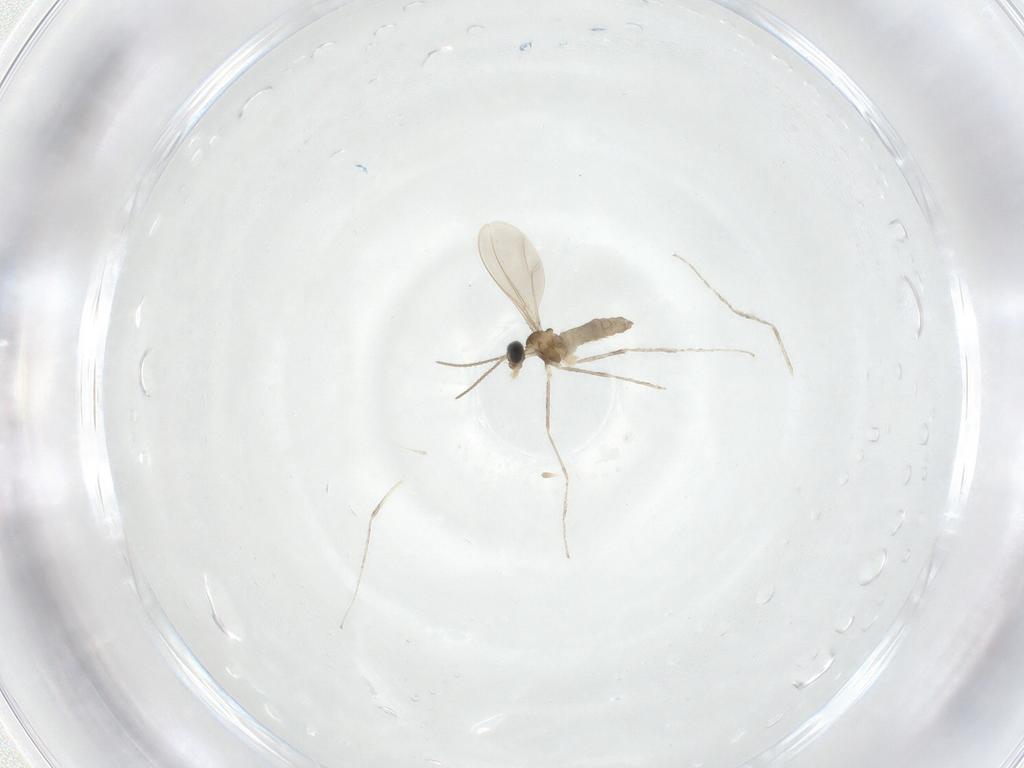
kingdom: Animalia
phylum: Arthropoda
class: Insecta
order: Diptera
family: Cecidomyiidae
